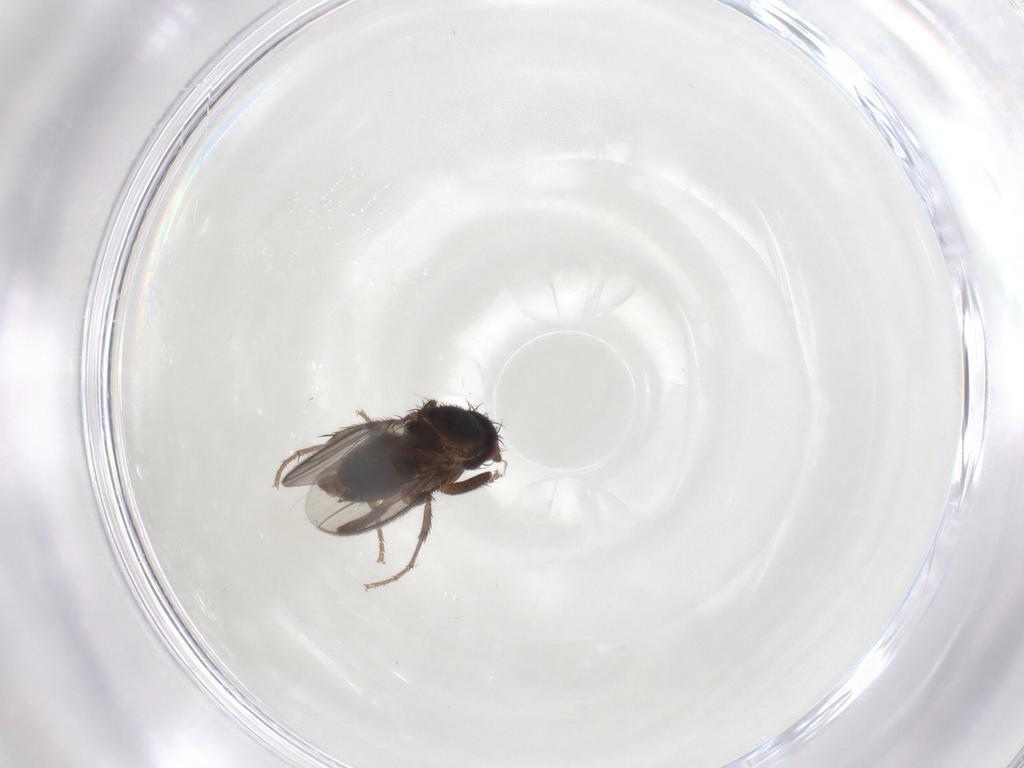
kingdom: Animalia
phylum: Arthropoda
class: Insecta
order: Diptera
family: Sphaeroceridae
